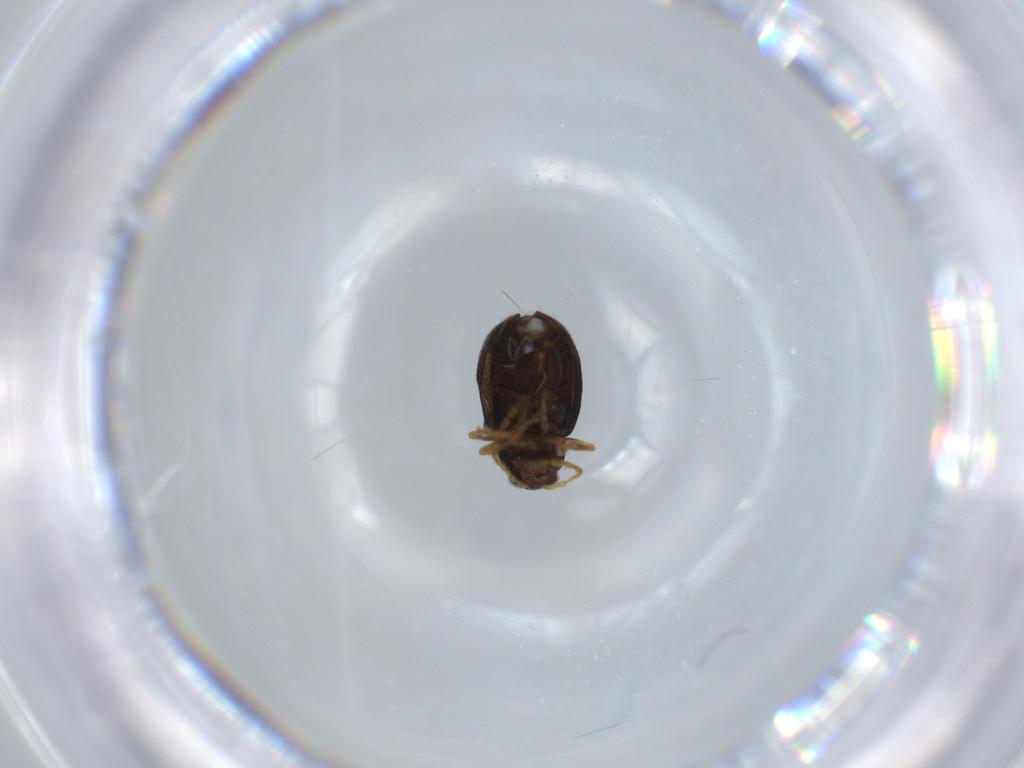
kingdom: Animalia
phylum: Arthropoda
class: Insecta
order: Coleoptera
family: Chrysomelidae
